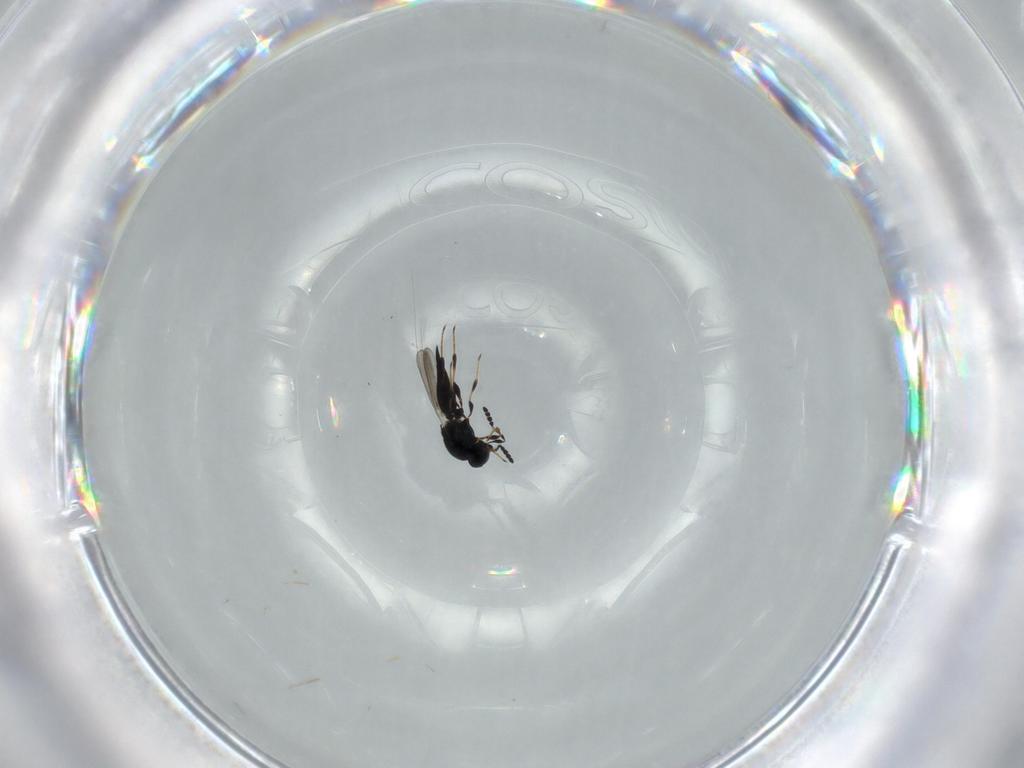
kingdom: Animalia
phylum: Arthropoda
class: Insecta
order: Hymenoptera
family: Platygastridae
